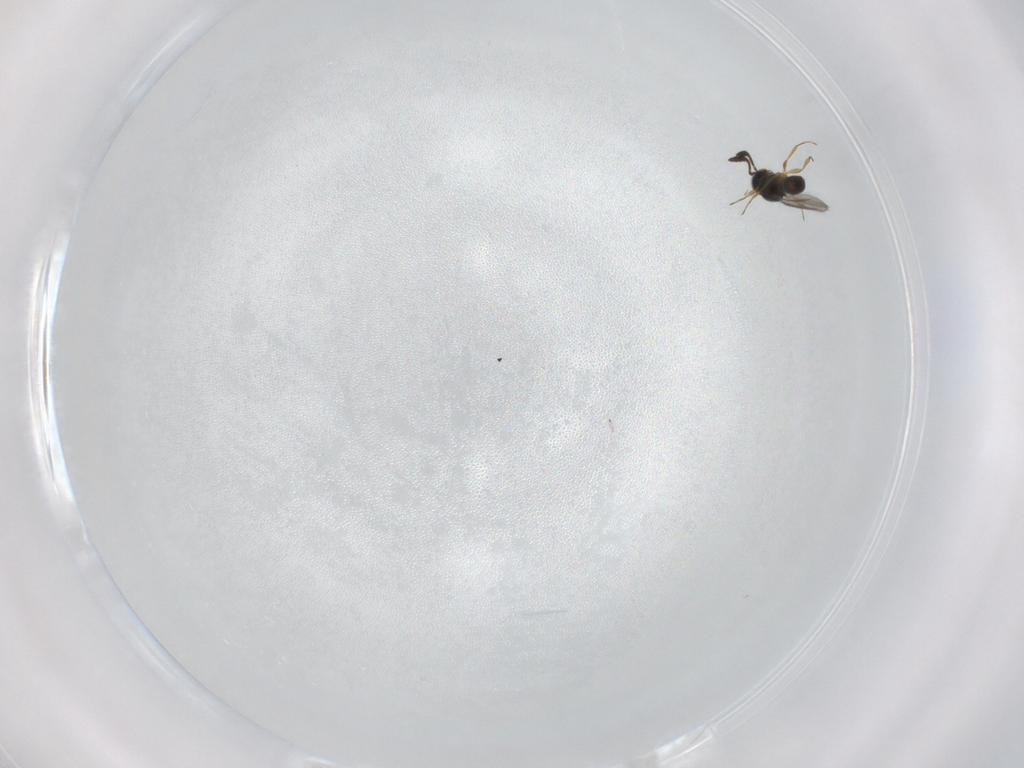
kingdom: Animalia
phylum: Arthropoda
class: Insecta
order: Hymenoptera
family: Scelionidae
